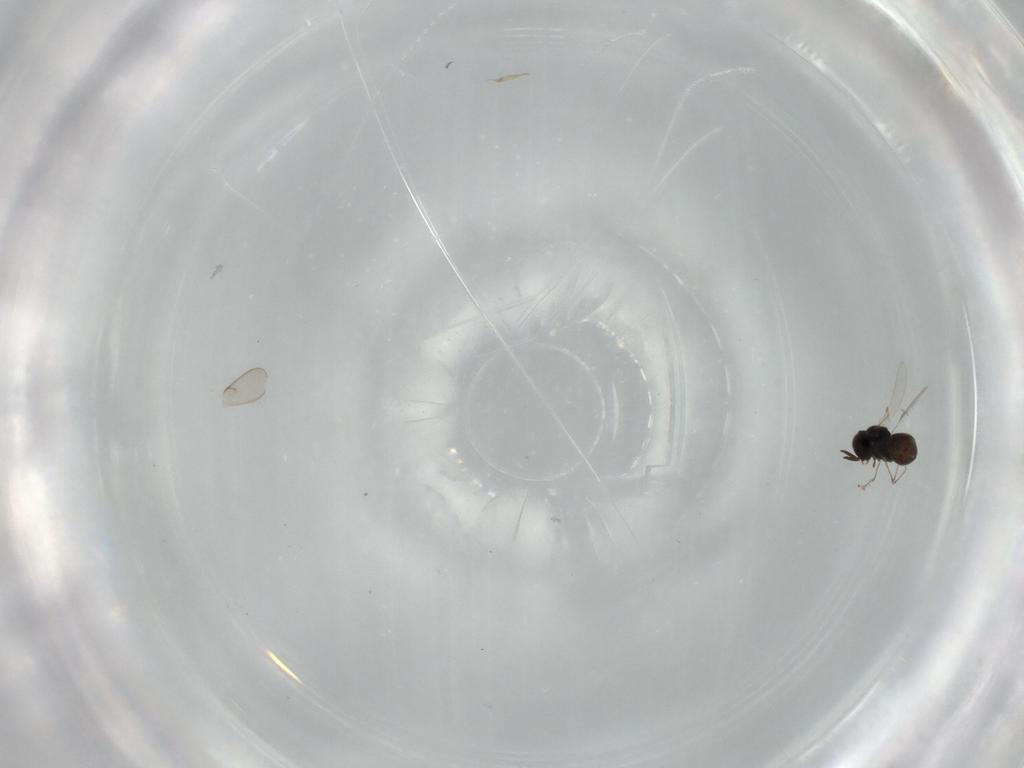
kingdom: Animalia
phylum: Arthropoda
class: Insecta
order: Hymenoptera
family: Scelionidae
